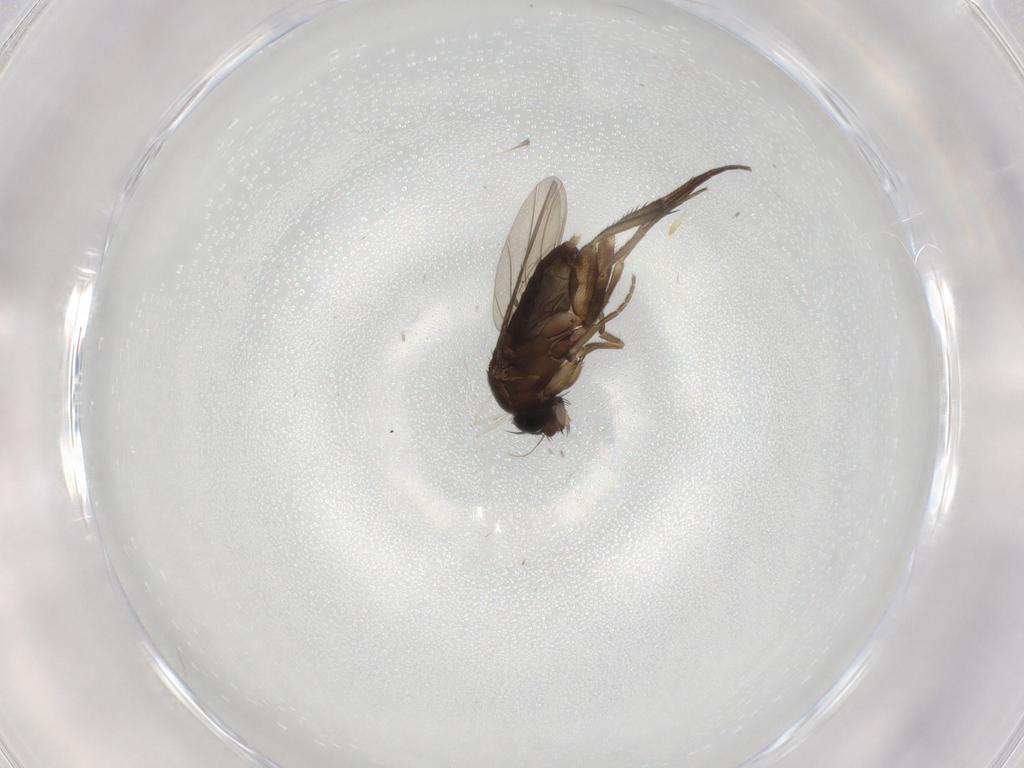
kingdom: Animalia
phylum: Arthropoda
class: Insecta
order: Diptera
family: Phoridae
